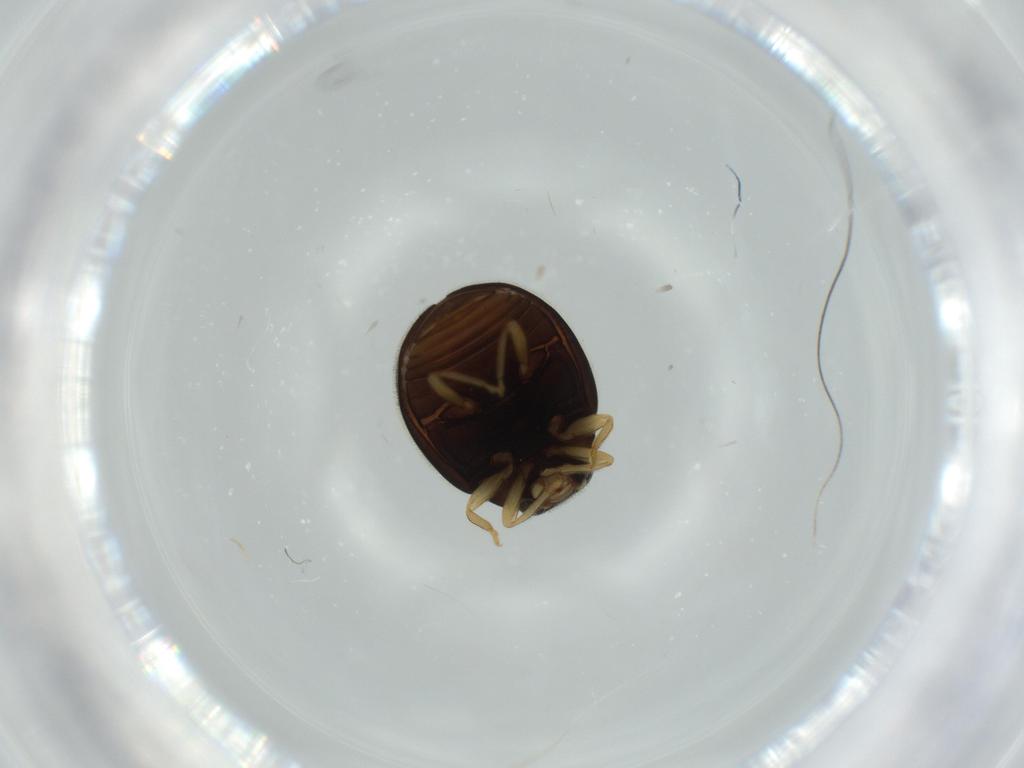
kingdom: Animalia
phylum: Arthropoda
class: Insecta
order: Coleoptera
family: Coccinellidae
